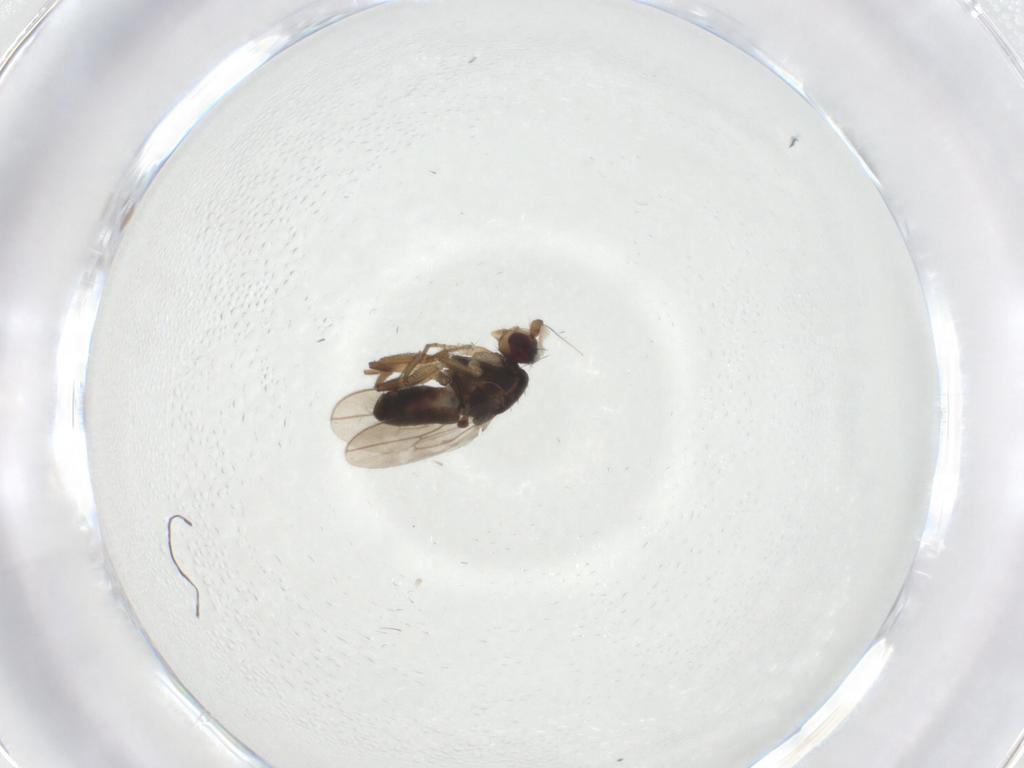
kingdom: Animalia
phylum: Arthropoda
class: Insecta
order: Diptera
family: Sphaeroceridae
